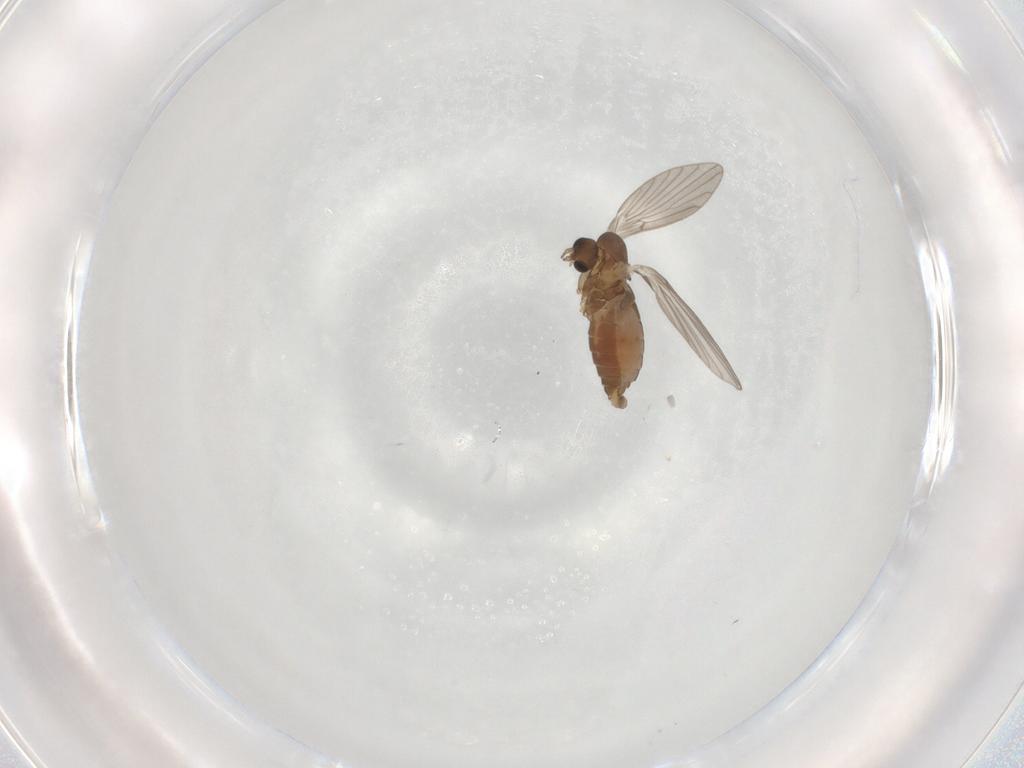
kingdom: Animalia
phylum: Arthropoda
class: Insecta
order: Diptera
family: Psychodidae
